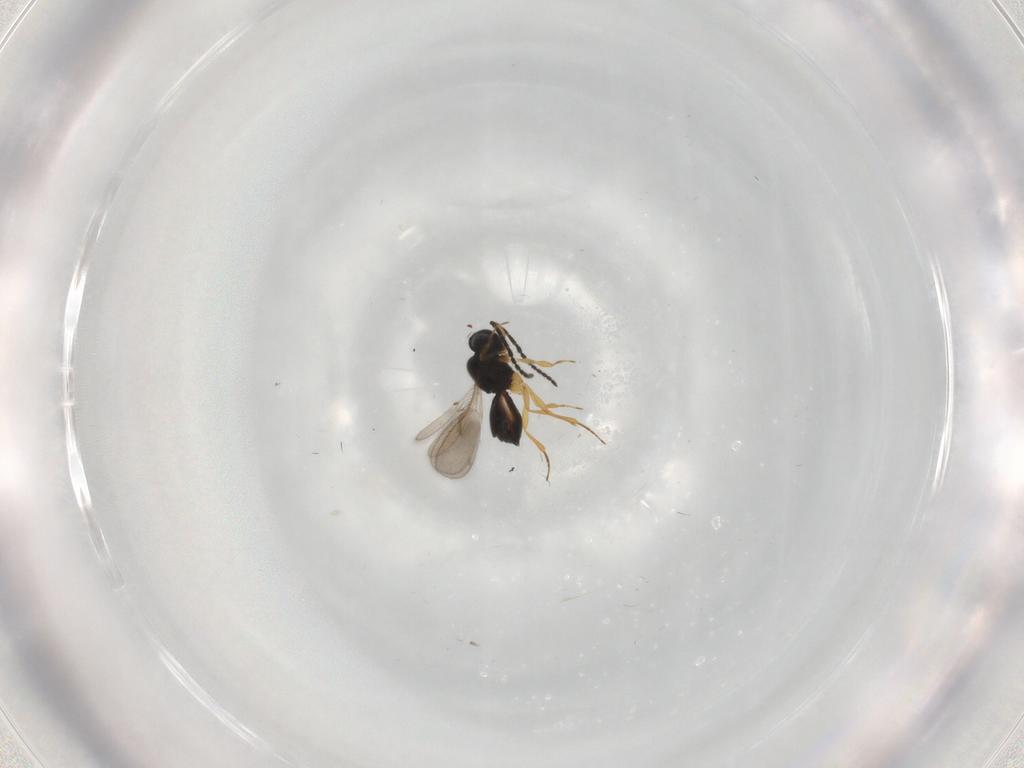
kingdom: Animalia
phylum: Arthropoda
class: Insecta
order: Hymenoptera
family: Scelionidae
